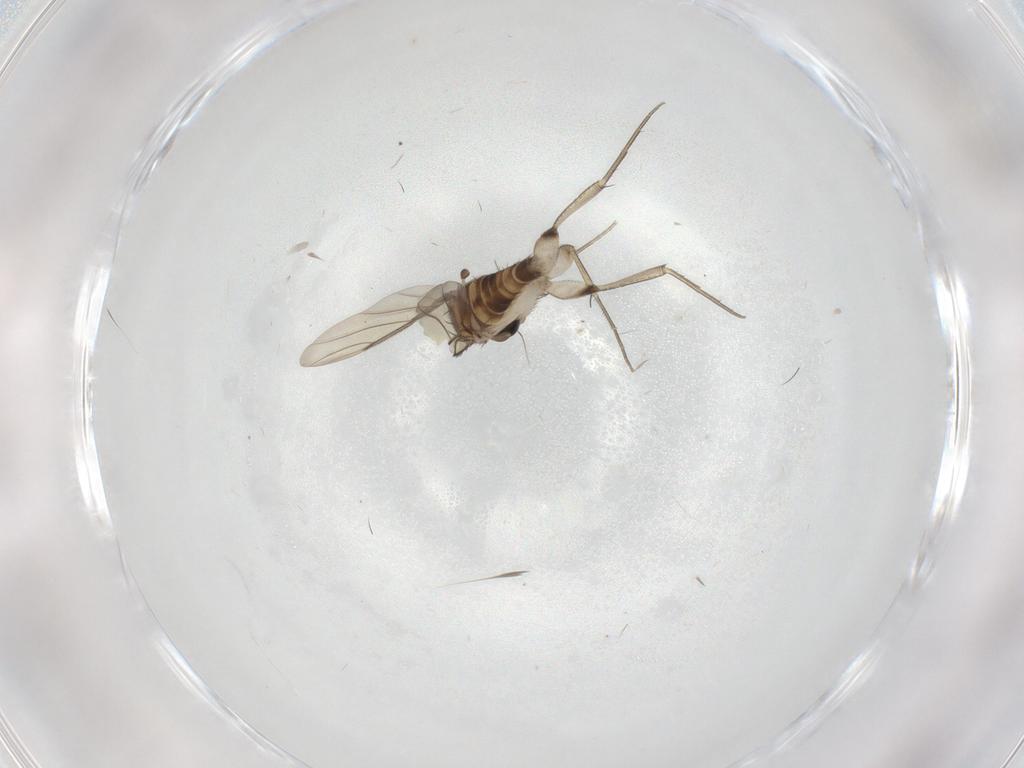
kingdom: Animalia
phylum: Arthropoda
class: Insecta
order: Diptera
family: Phoridae
